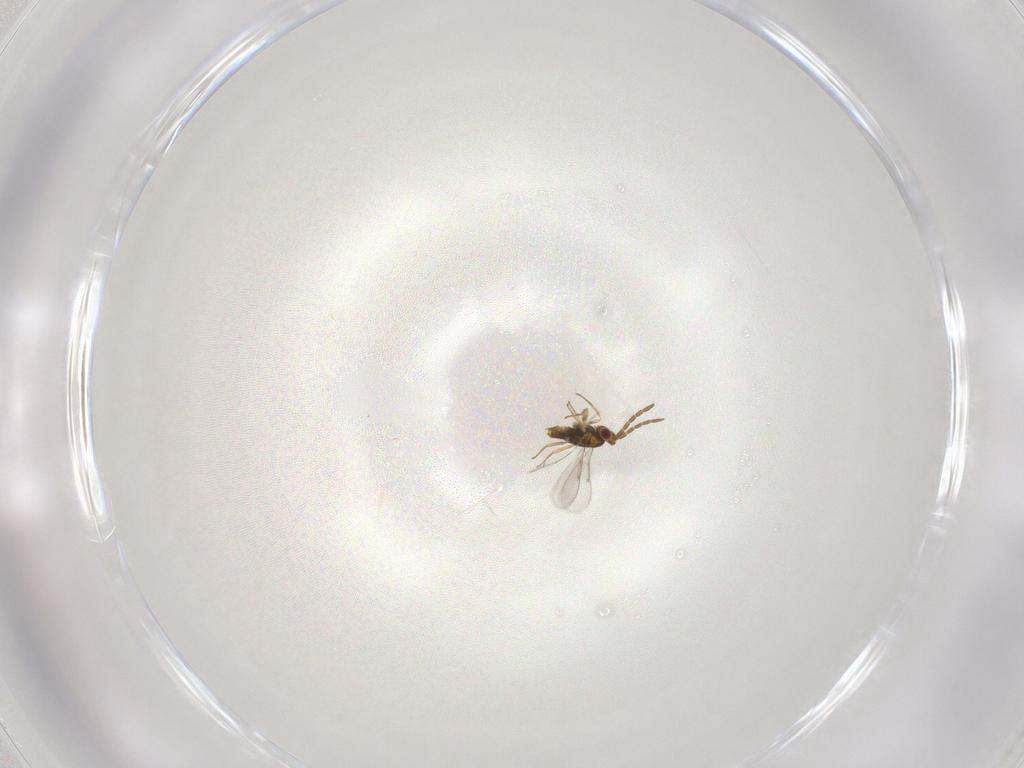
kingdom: Animalia
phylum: Arthropoda
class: Insecta
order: Hymenoptera
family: Aphelinidae
